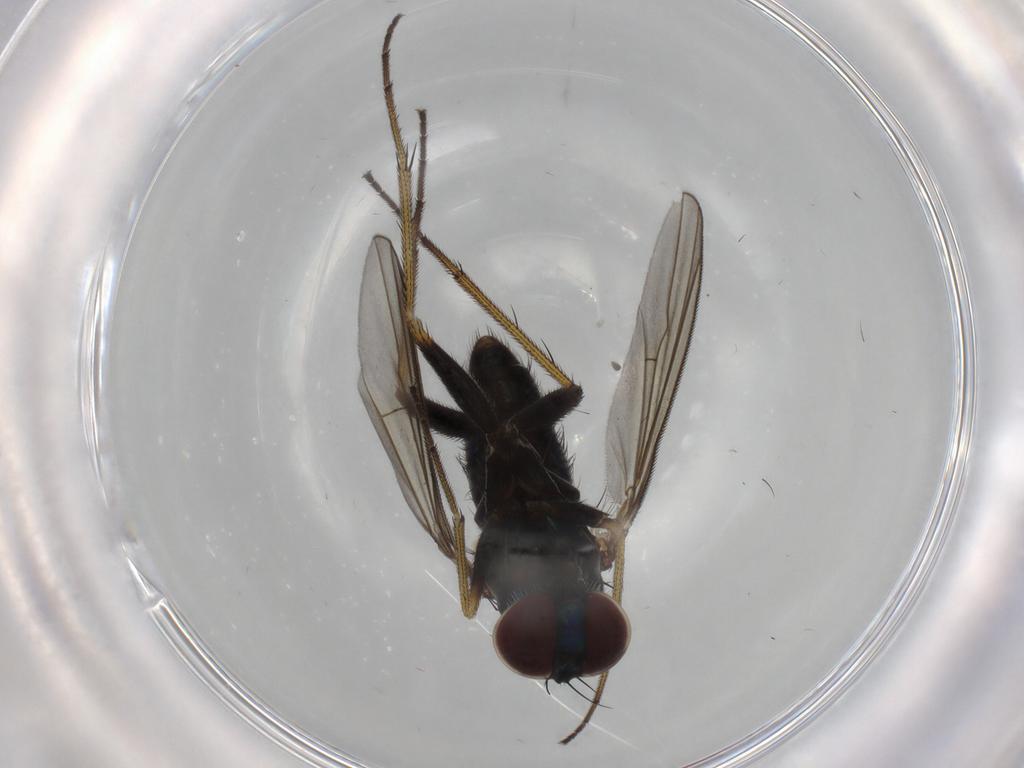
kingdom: Animalia
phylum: Arthropoda
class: Insecta
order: Diptera
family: Dolichopodidae
